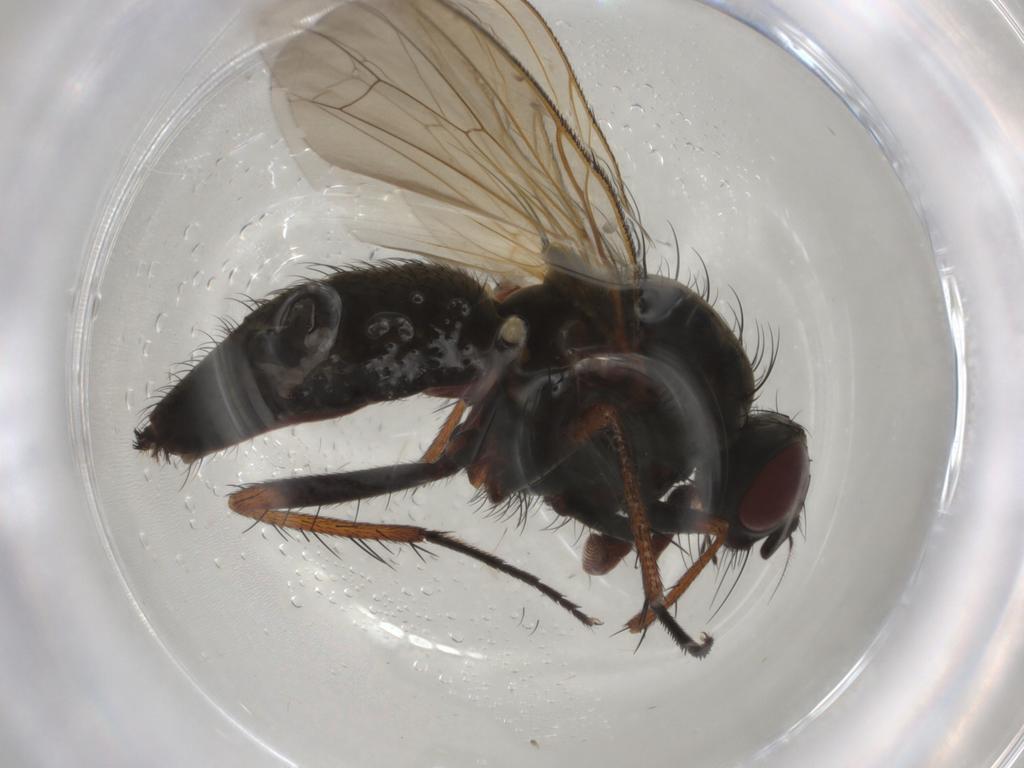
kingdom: Animalia
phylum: Arthropoda
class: Insecta
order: Diptera
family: Anthomyiidae
